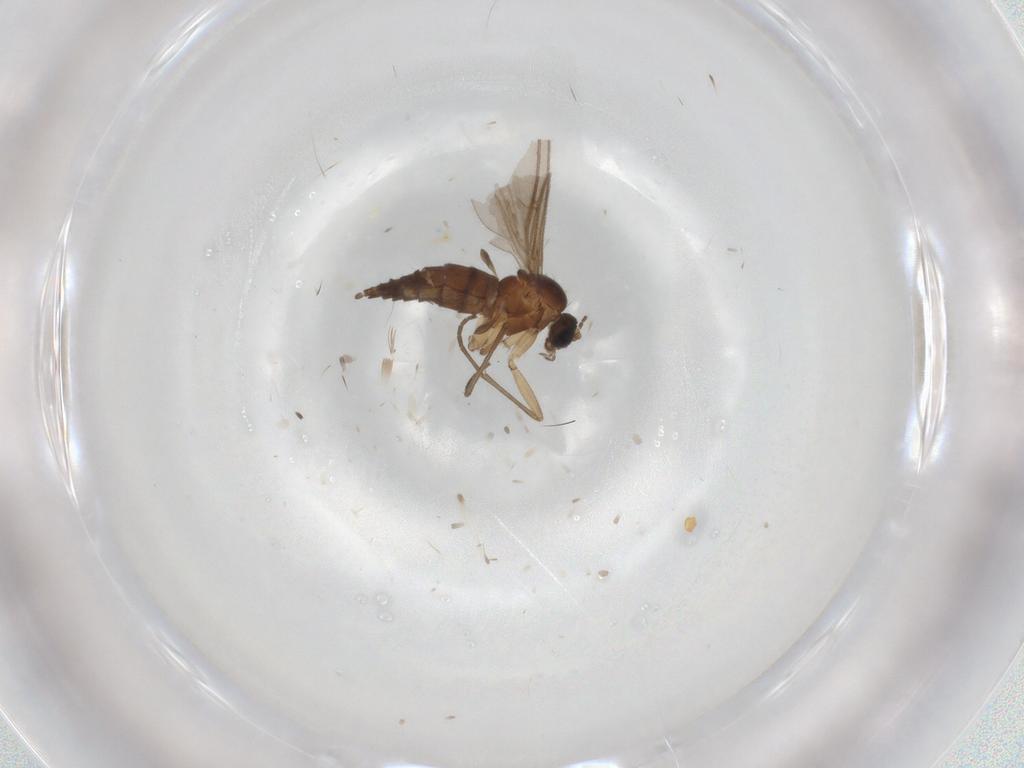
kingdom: Animalia
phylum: Arthropoda
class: Insecta
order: Diptera
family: Sciaridae
